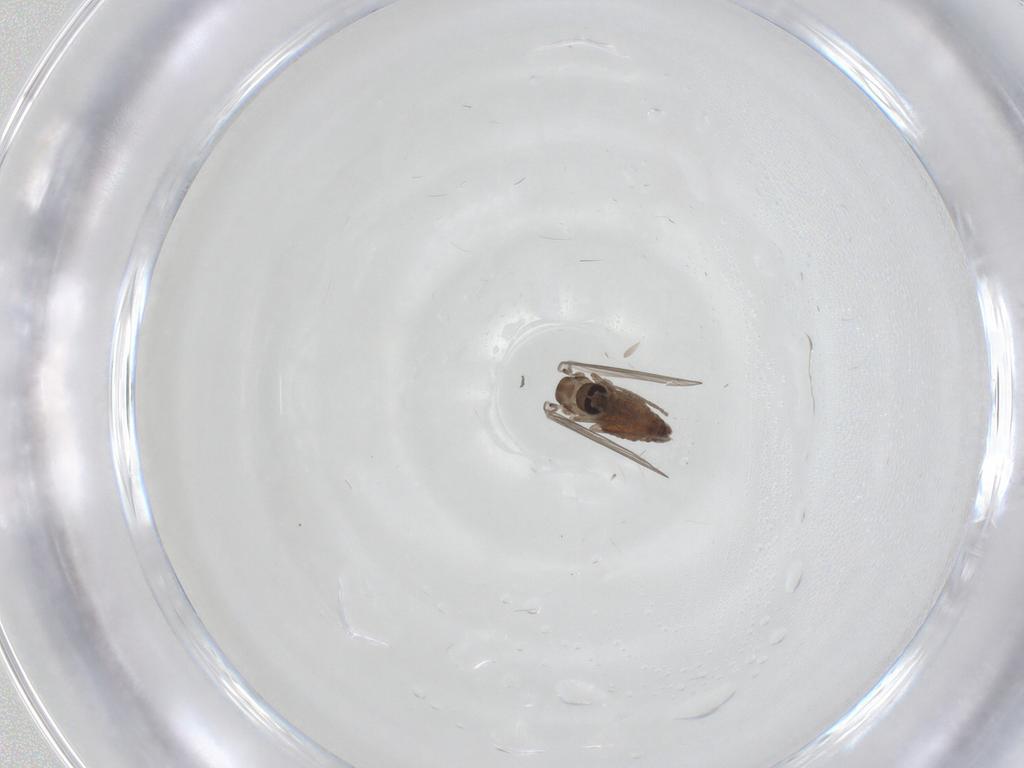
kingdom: Animalia
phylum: Arthropoda
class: Insecta
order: Diptera
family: Psychodidae
